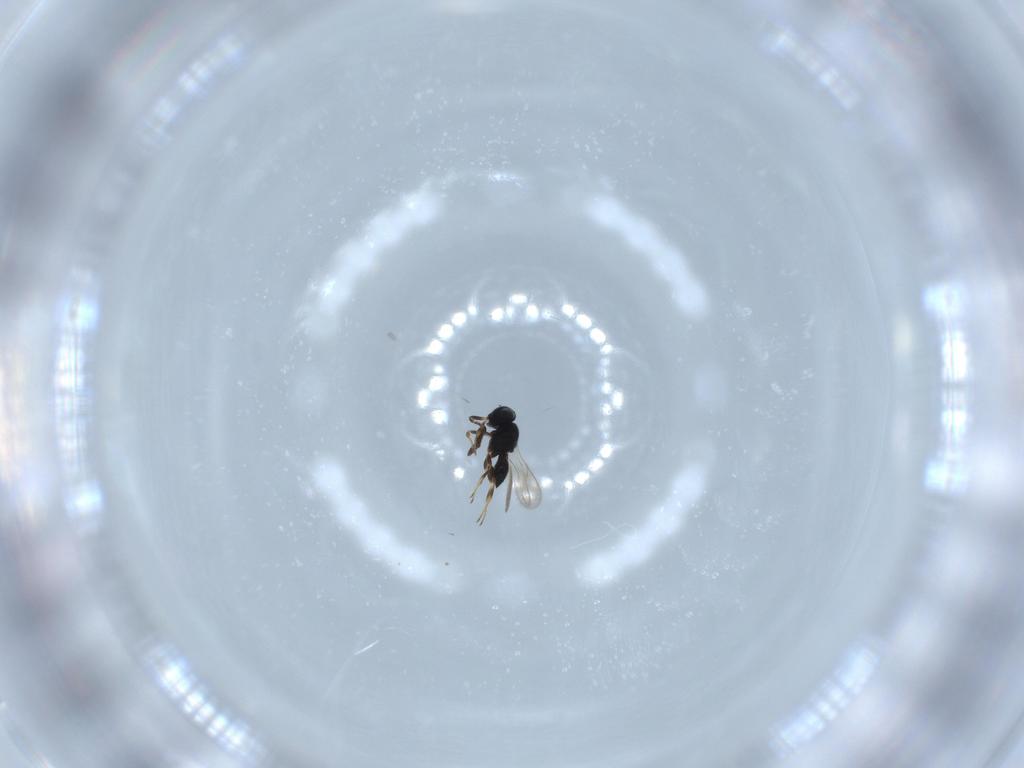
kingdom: Animalia
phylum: Arthropoda
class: Insecta
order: Hymenoptera
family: Scelionidae
